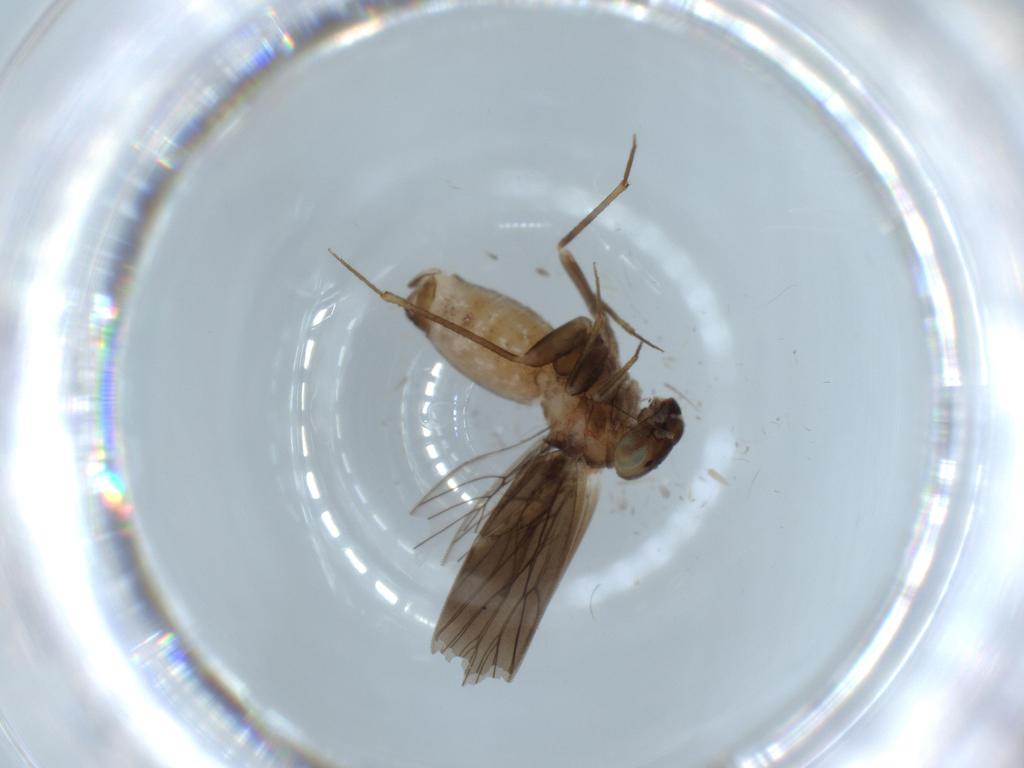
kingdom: Animalia
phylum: Arthropoda
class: Insecta
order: Psocodea
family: Lepidopsocidae
